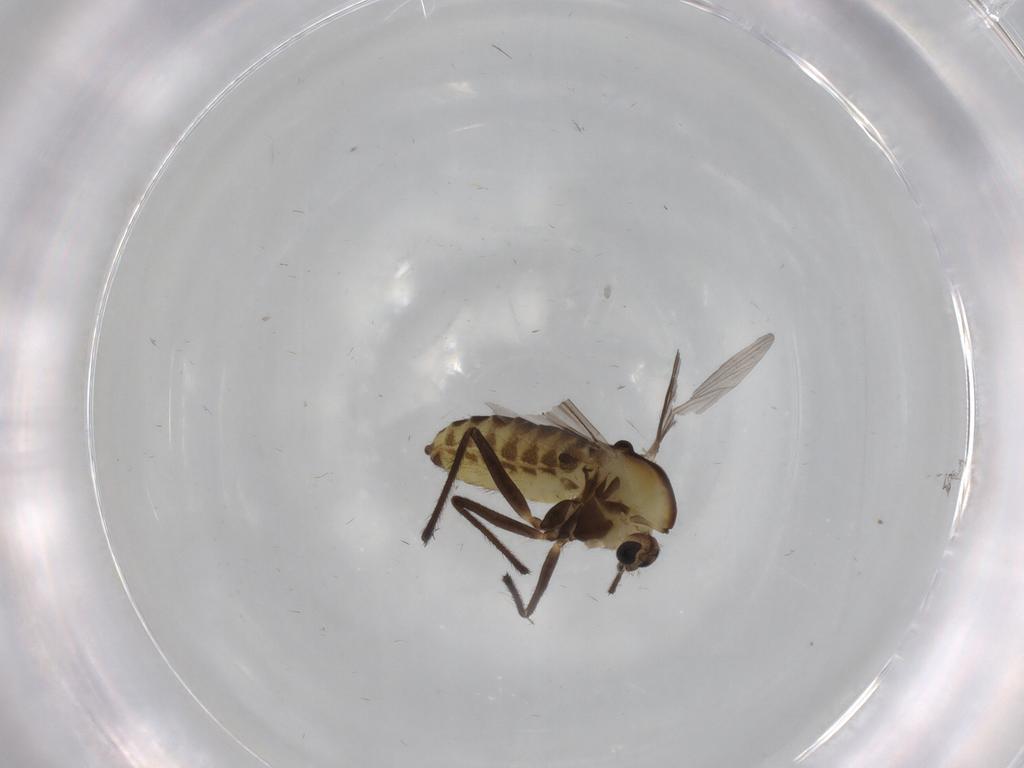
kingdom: Animalia
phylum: Arthropoda
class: Insecta
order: Diptera
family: Chironomidae
